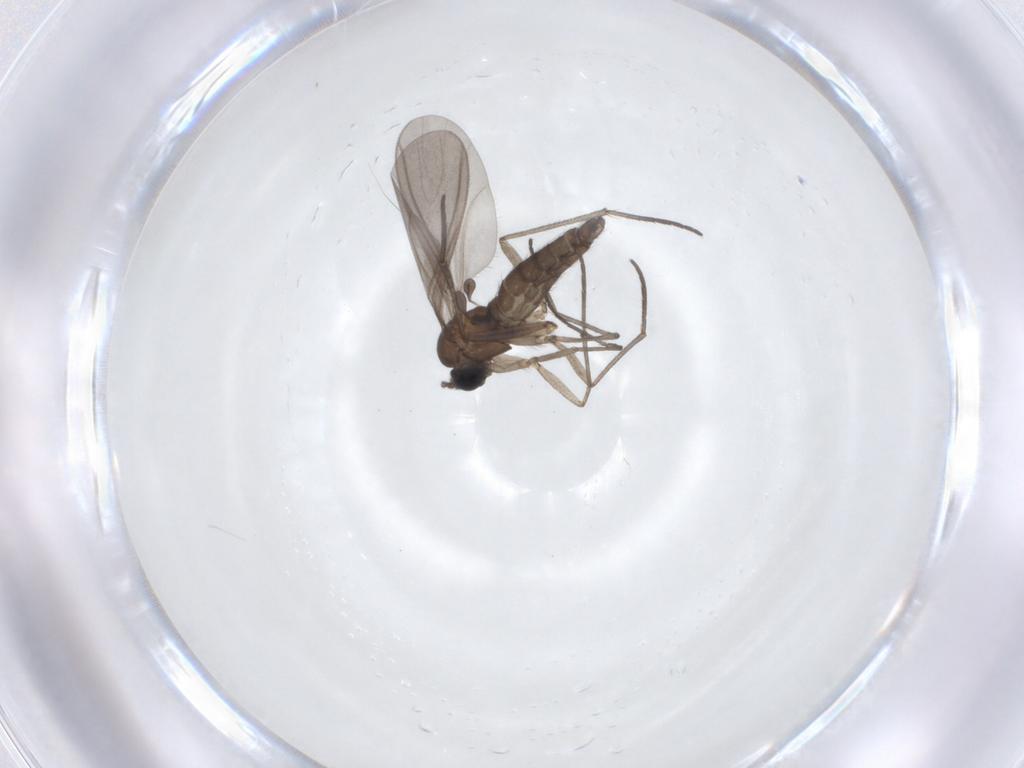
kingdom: Animalia
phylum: Arthropoda
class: Insecta
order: Diptera
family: Sciaridae
